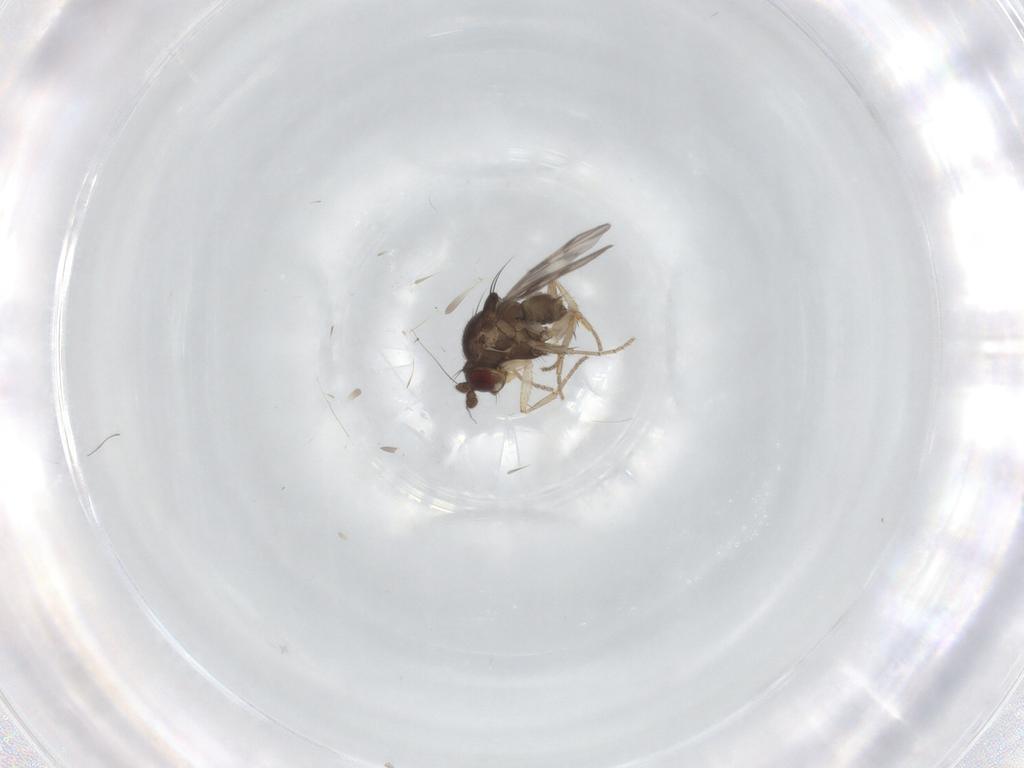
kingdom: Animalia
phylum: Arthropoda
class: Insecta
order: Diptera
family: Sphaeroceridae
